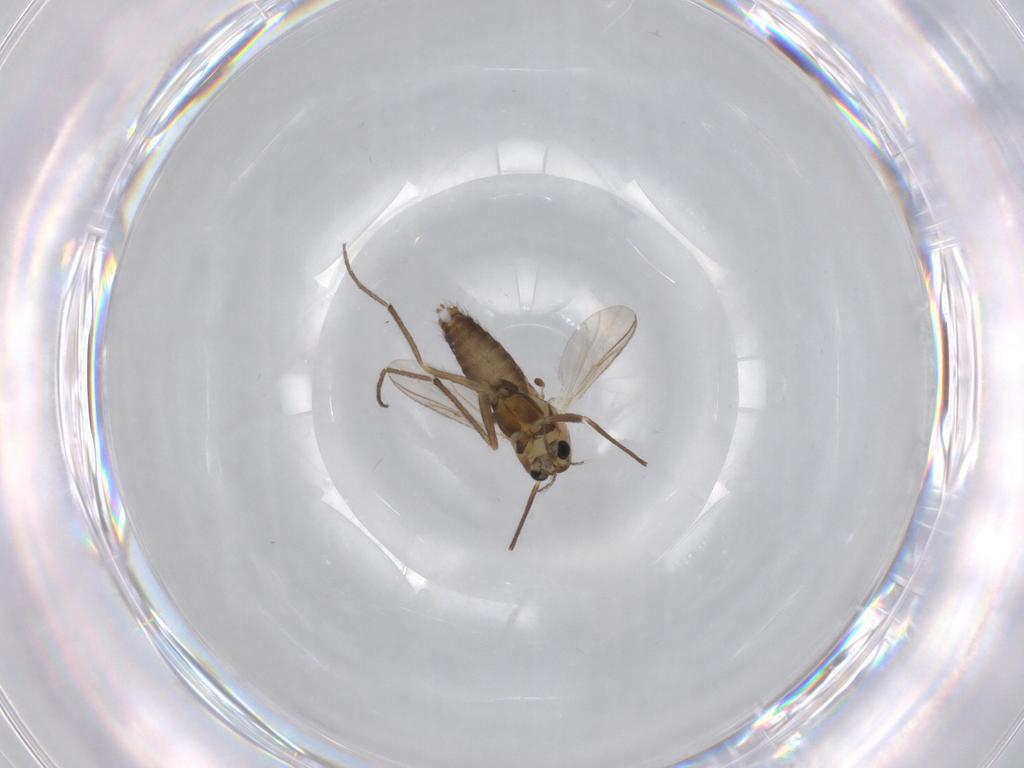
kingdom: Animalia
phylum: Arthropoda
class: Insecta
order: Diptera
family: Chironomidae
